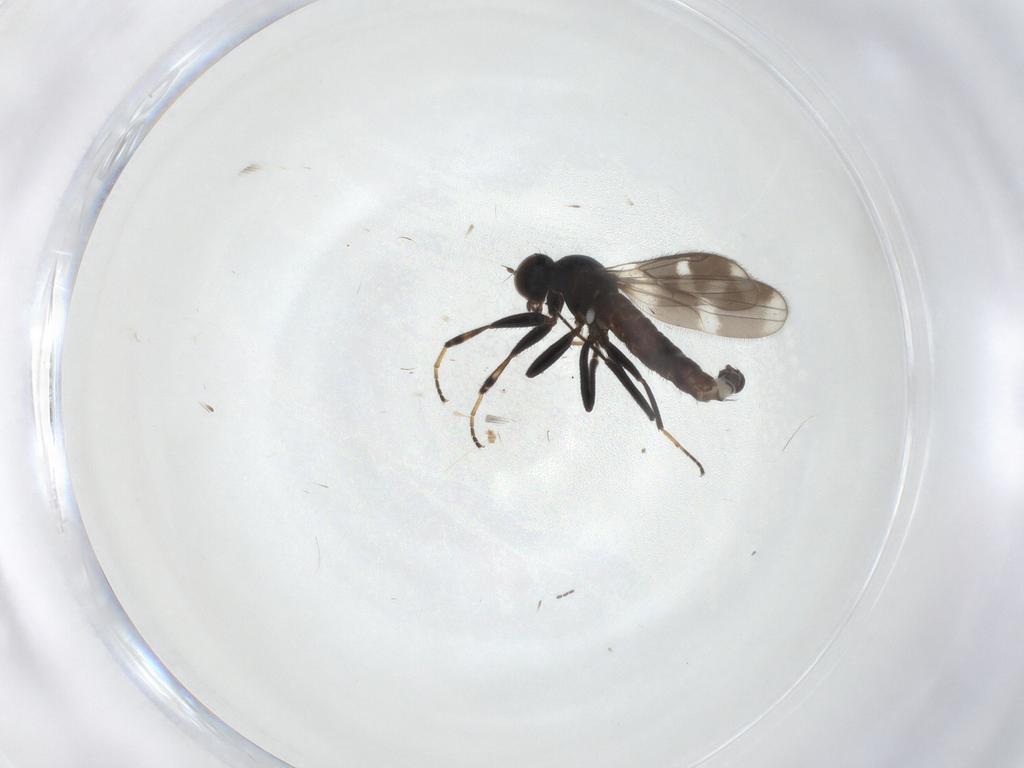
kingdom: Animalia
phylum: Arthropoda
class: Insecta
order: Diptera
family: Hybotidae
